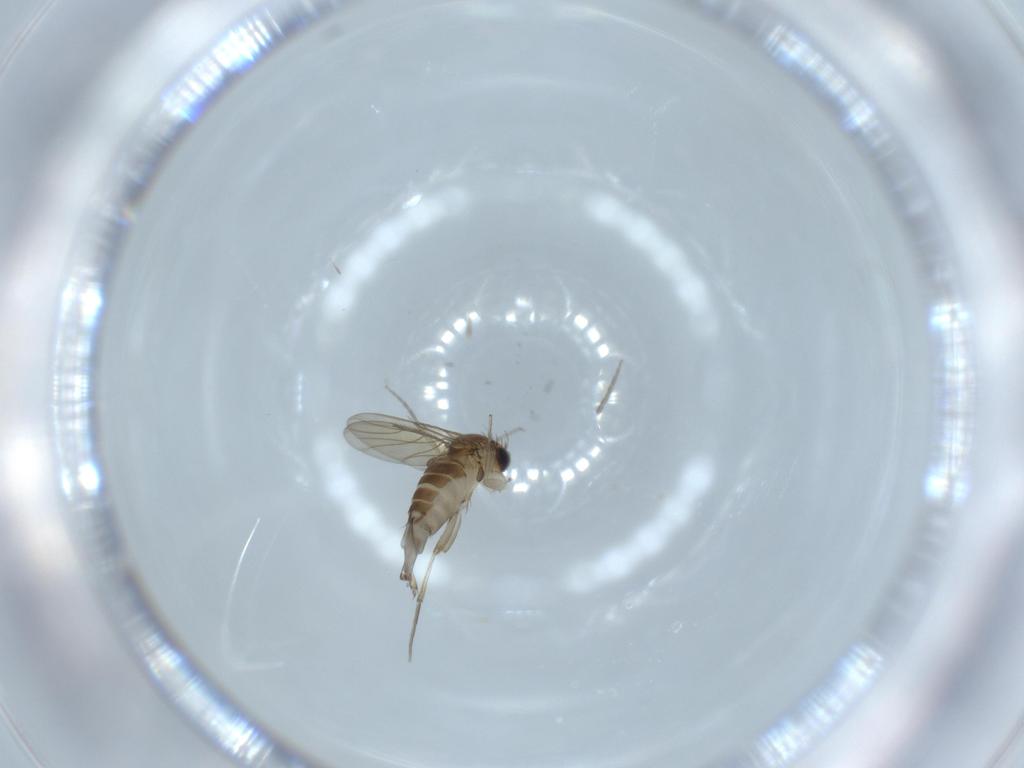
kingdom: Animalia
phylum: Arthropoda
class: Insecta
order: Diptera
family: Phoridae
